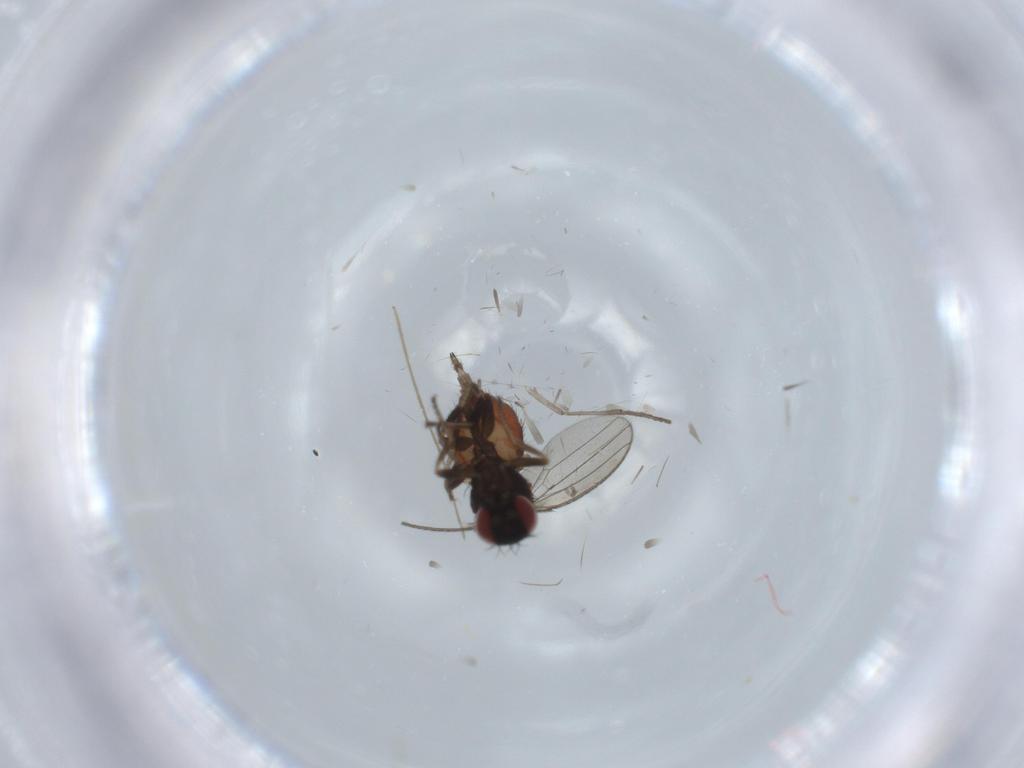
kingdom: Animalia
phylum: Arthropoda
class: Insecta
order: Diptera
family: Milichiidae
